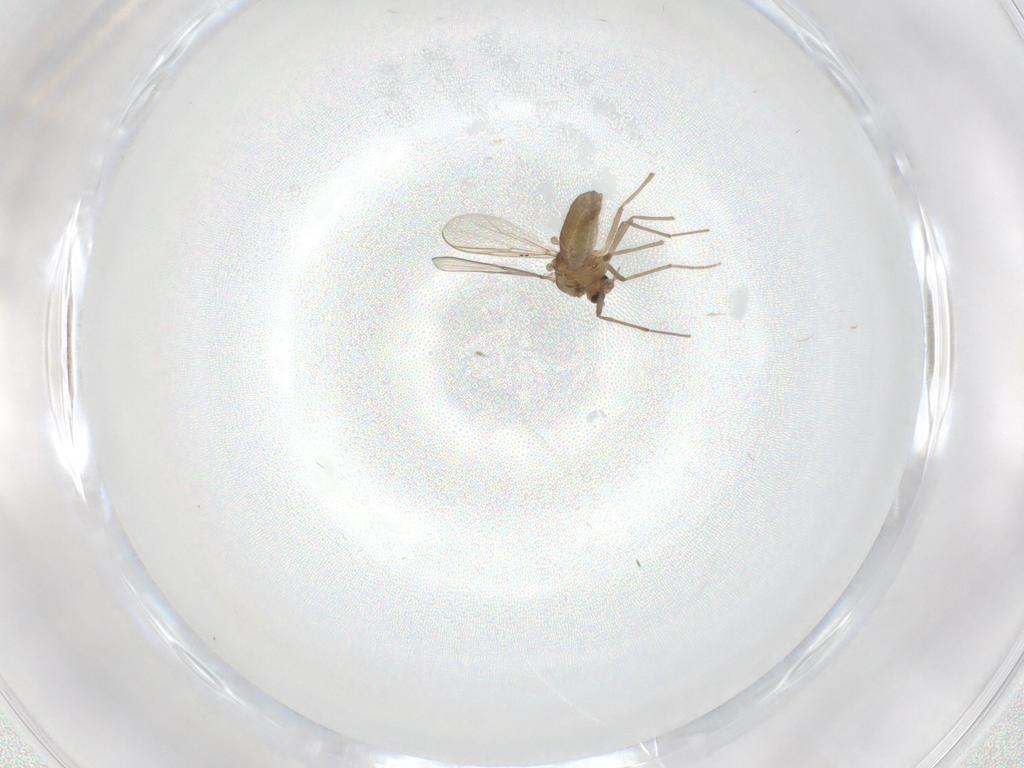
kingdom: Animalia
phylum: Arthropoda
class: Insecta
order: Diptera
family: Chironomidae
